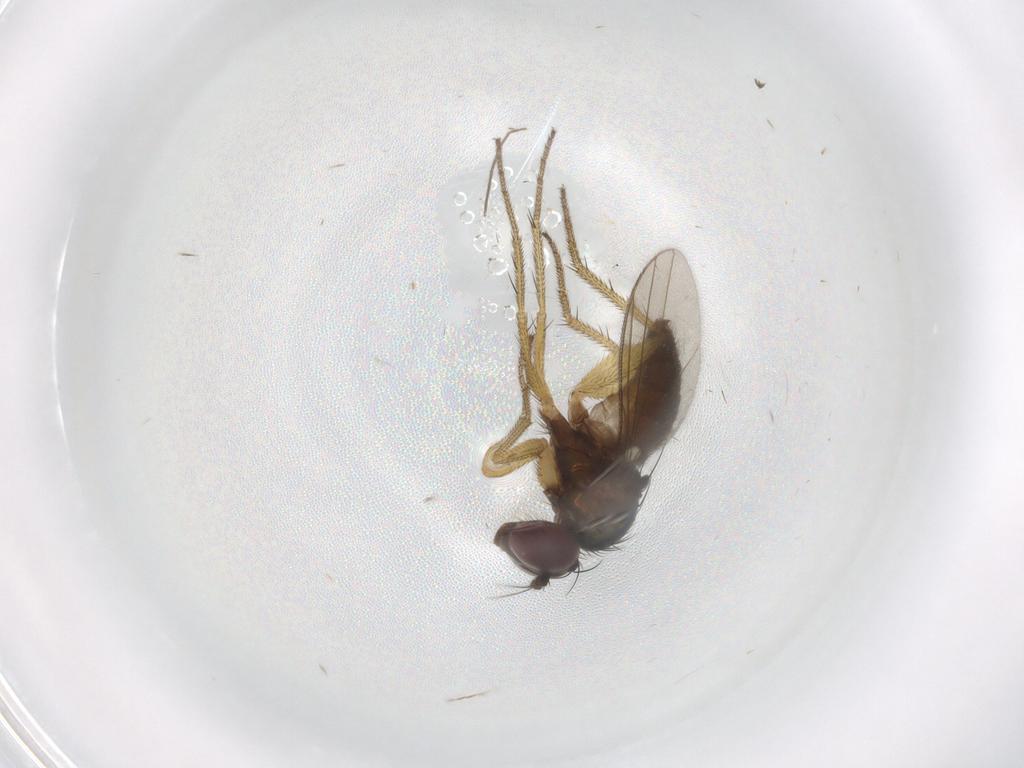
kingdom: Animalia
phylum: Arthropoda
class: Insecta
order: Diptera
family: Chironomidae
